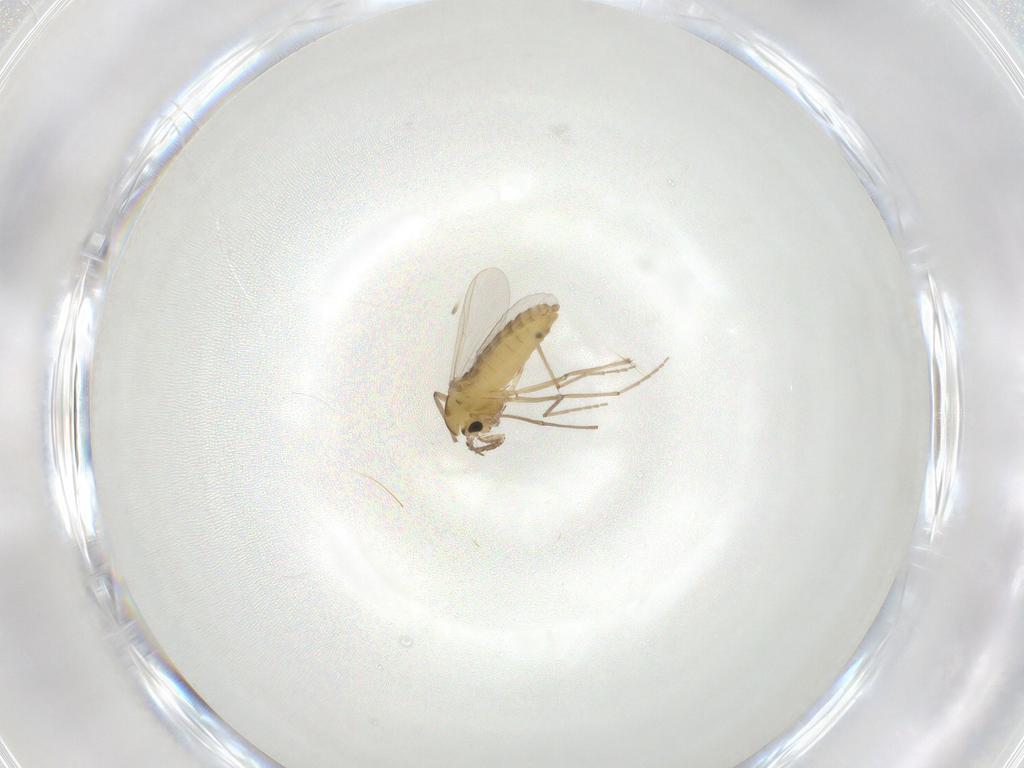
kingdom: Animalia
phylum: Arthropoda
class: Insecta
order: Diptera
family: Chironomidae
